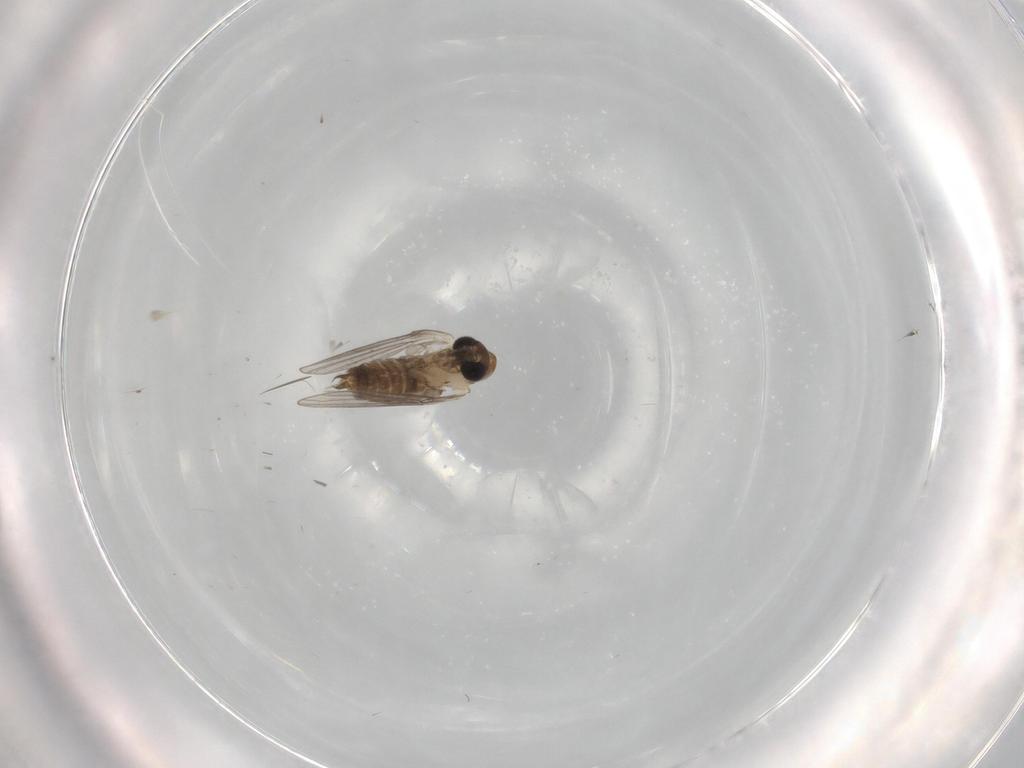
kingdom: Animalia
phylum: Arthropoda
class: Insecta
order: Diptera
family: Psychodidae
